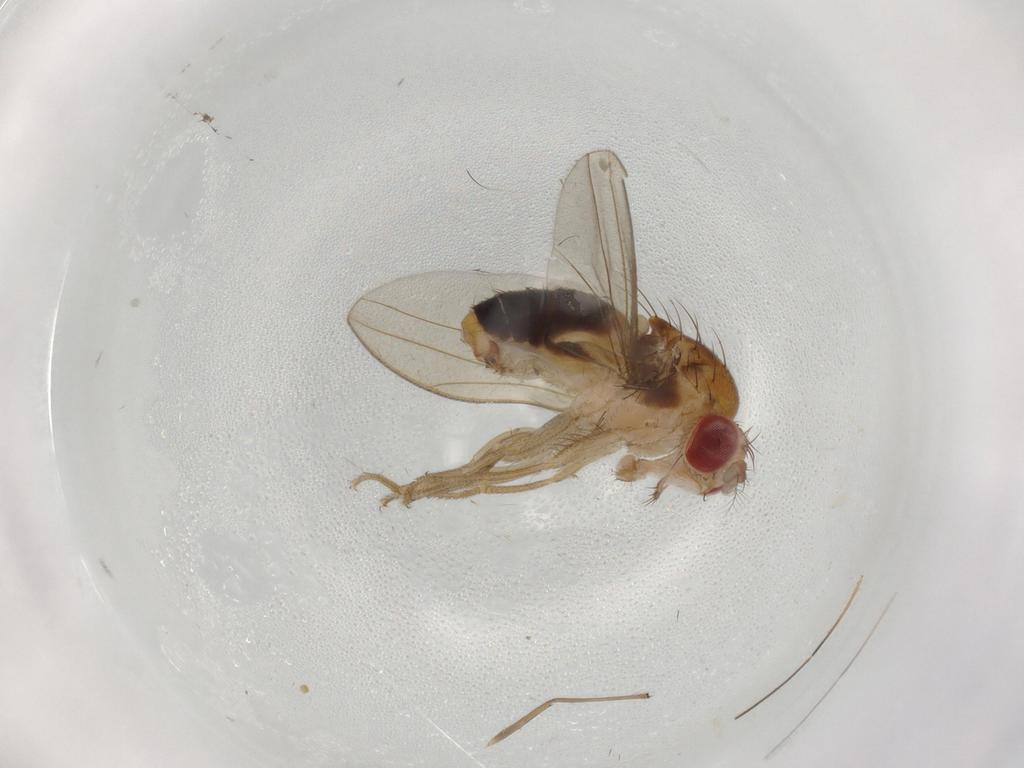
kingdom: Animalia
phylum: Arthropoda
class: Insecta
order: Diptera
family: Drosophilidae
